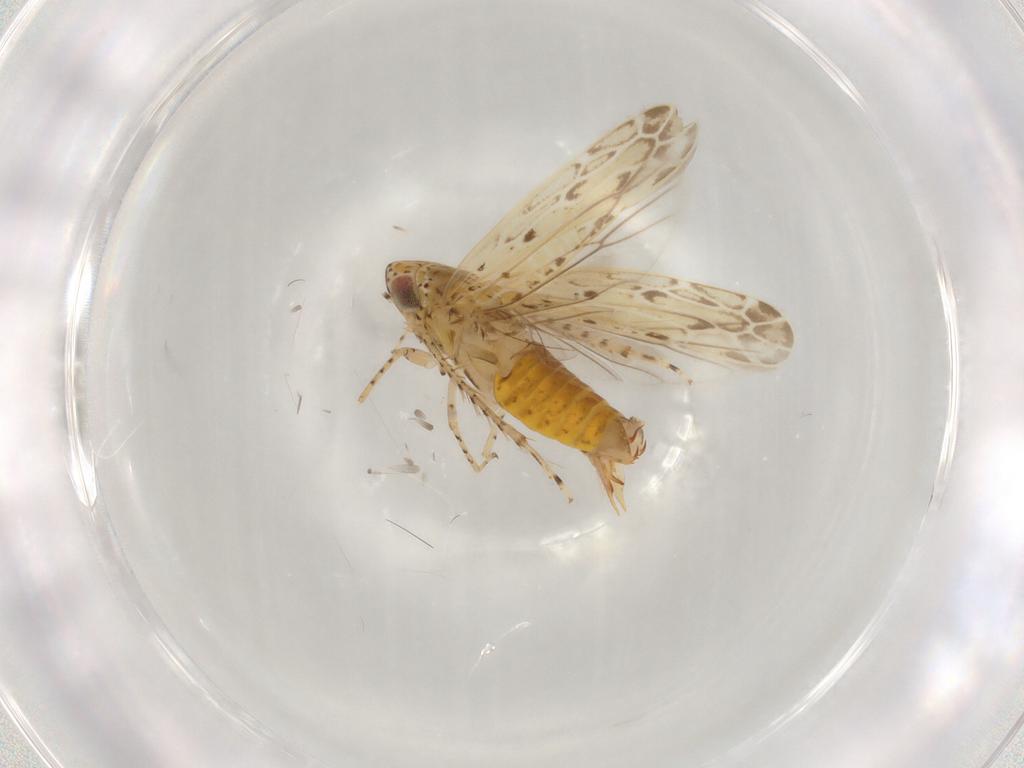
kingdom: Animalia
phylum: Arthropoda
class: Insecta
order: Hemiptera
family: Cicadellidae
